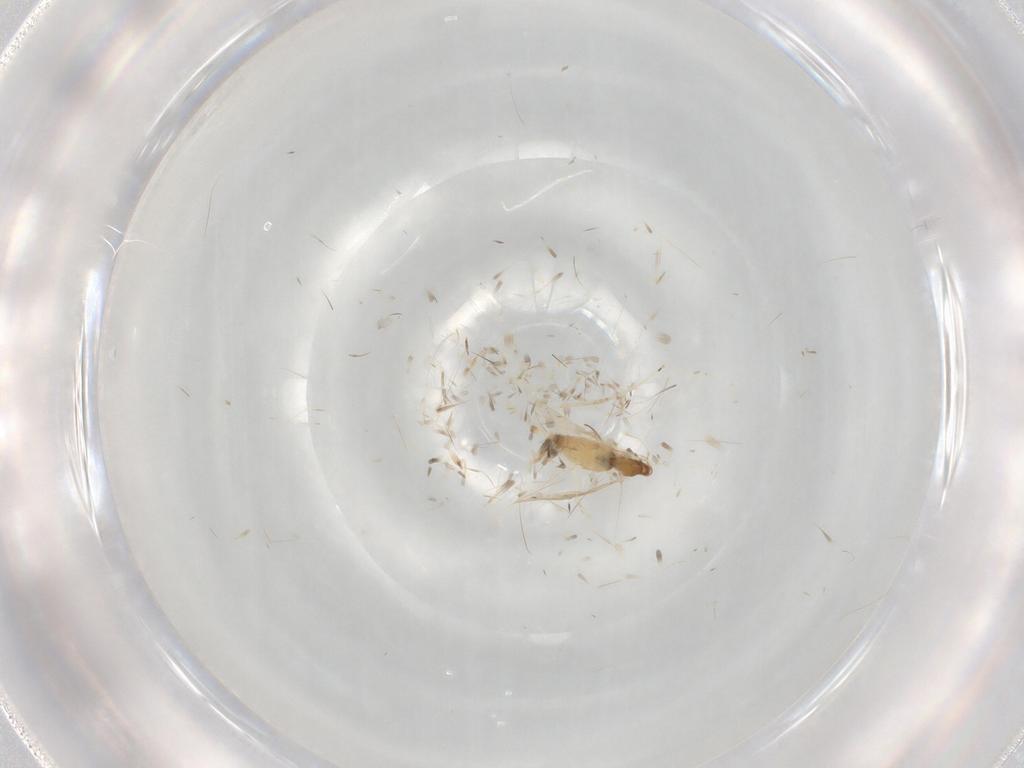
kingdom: Animalia
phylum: Arthropoda
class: Insecta
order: Diptera
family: Cecidomyiidae
